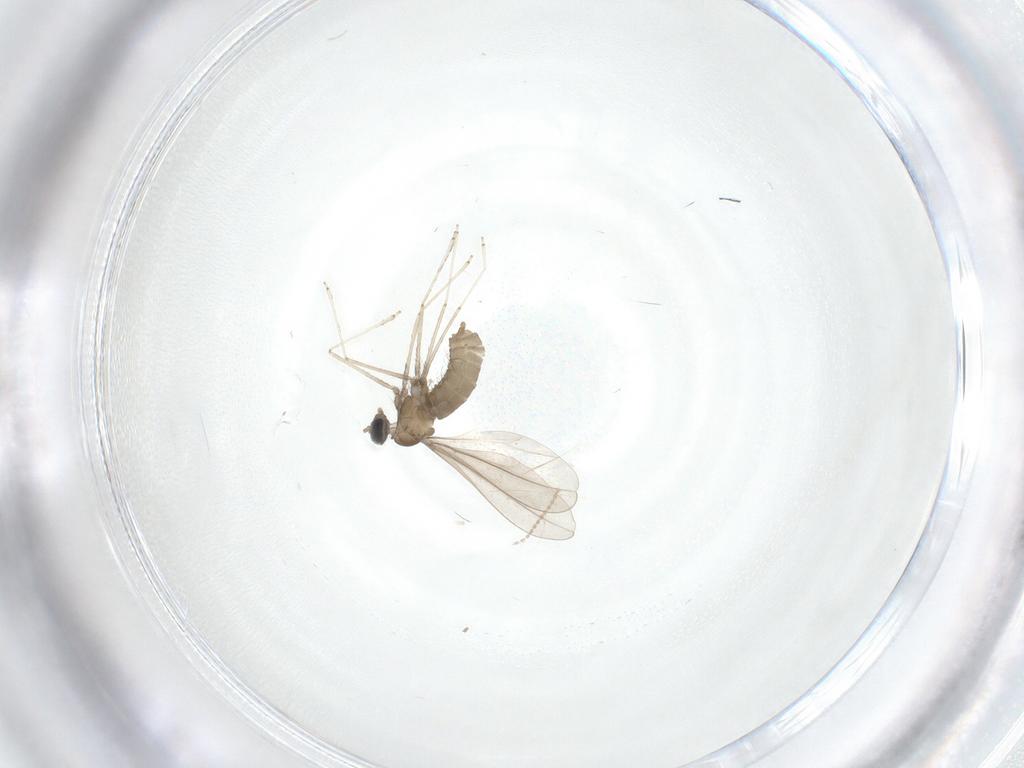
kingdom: Animalia
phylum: Arthropoda
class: Insecta
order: Diptera
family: Cecidomyiidae
